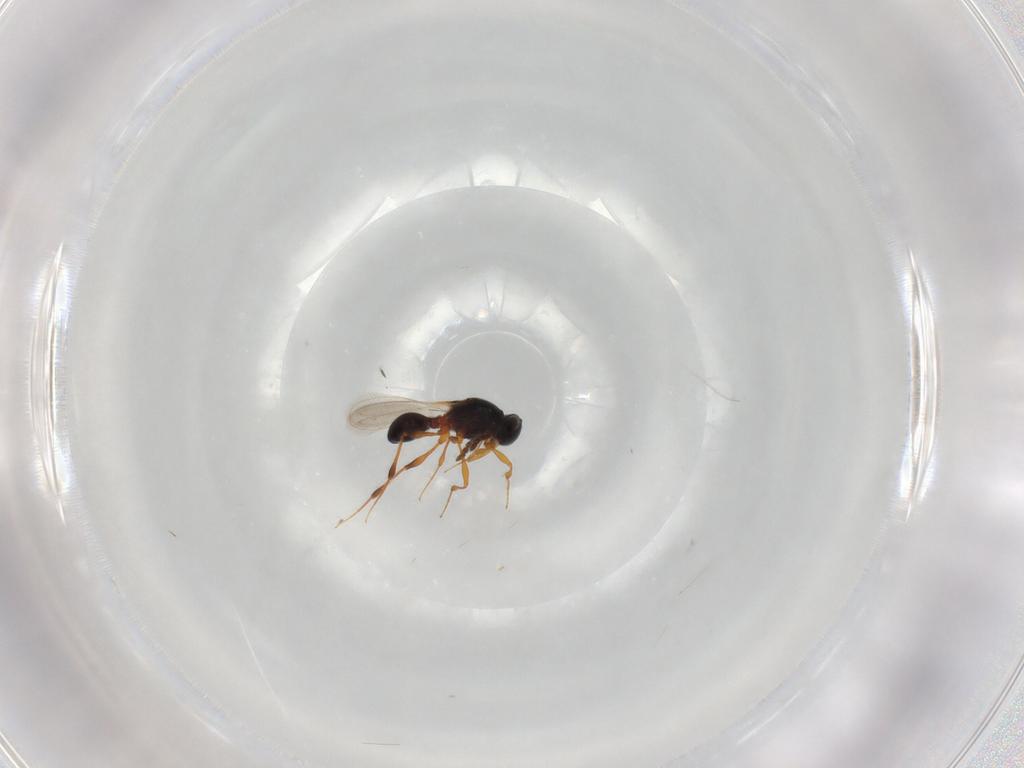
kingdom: Animalia
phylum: Arthropoda
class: Insecta
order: Hymenoptera
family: Platygastridae
